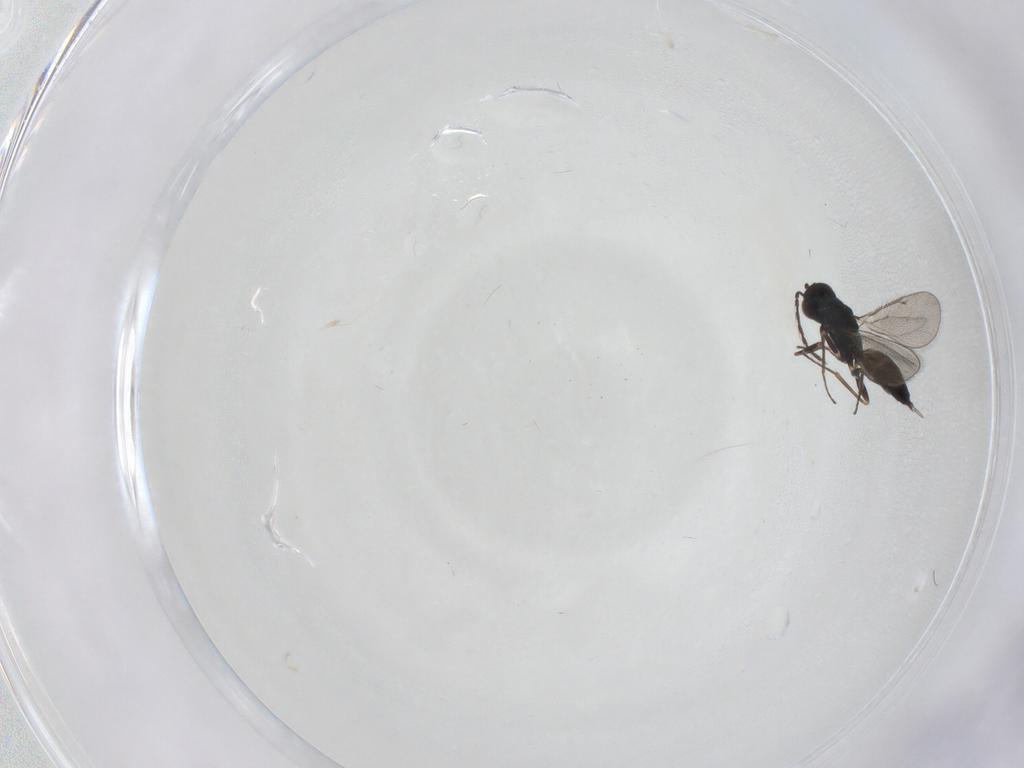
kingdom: Animalia
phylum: Arthropoda
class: Insecta
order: Hymenoptera
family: Eulophidae
